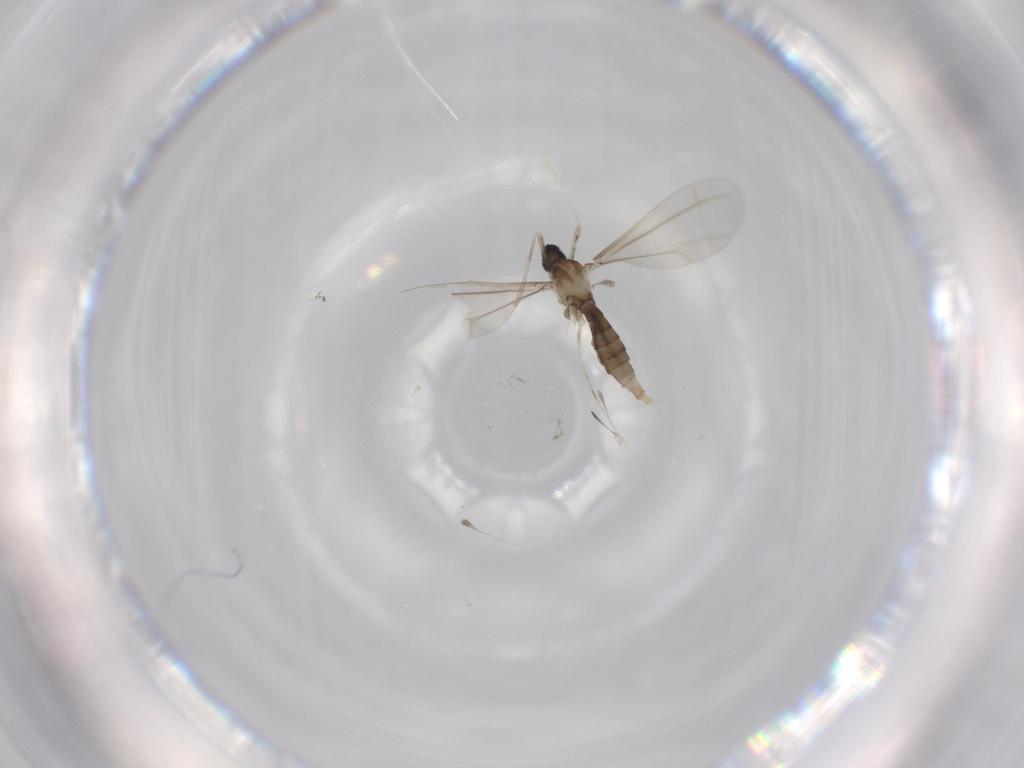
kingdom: Animalia
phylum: Arthropoda
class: Insecta
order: Diptera
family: Cecidomyiidae
